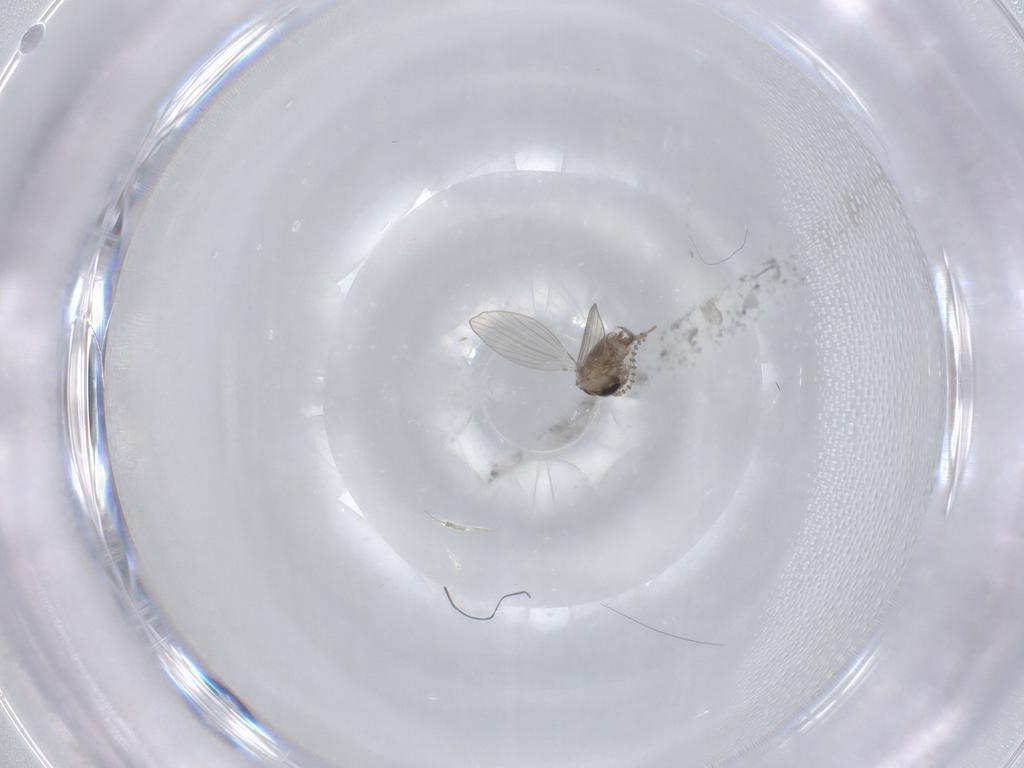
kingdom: Animalia
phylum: Arthropoda
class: Insecta
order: Diptera
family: Psychodidae
